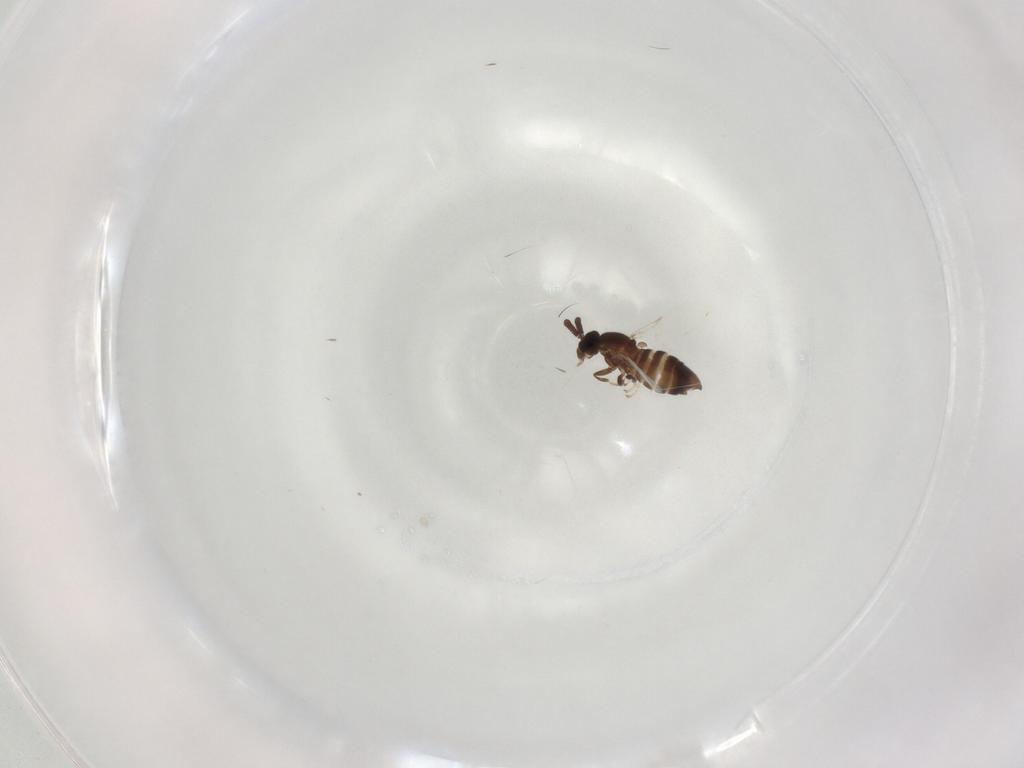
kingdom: Animalia
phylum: Arthropoda
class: Insecta
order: Diptera
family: Scatopsidae
